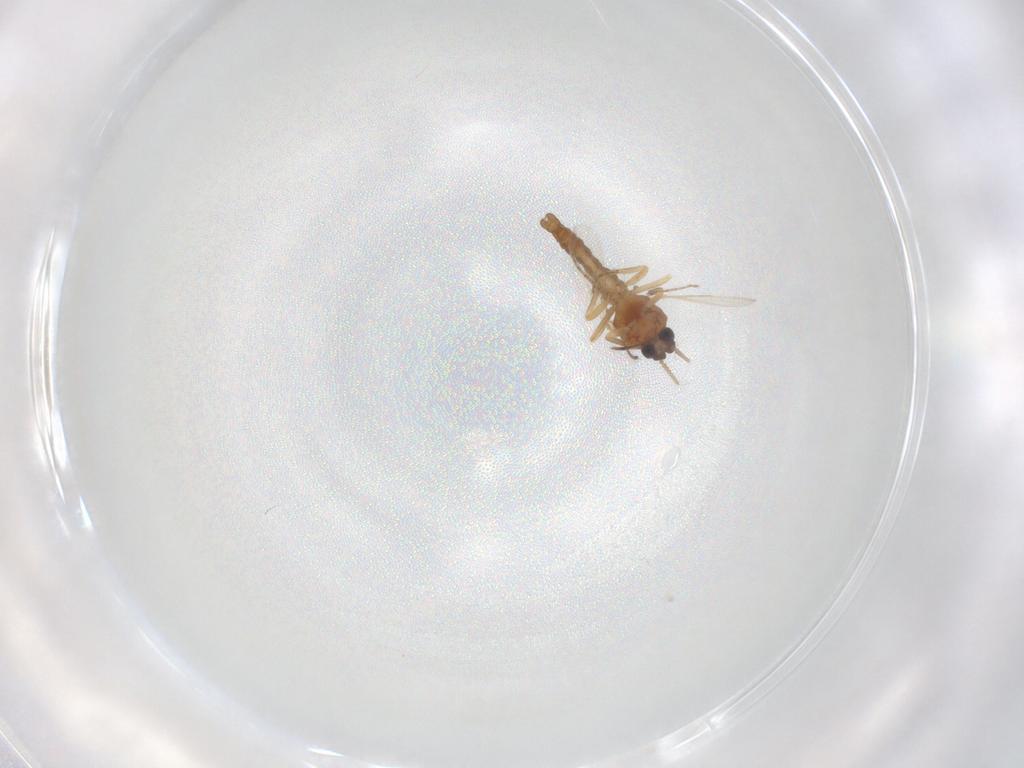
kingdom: Animalia
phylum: Arthropoda
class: Insecta
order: Diptera
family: Ceratopogonidae
